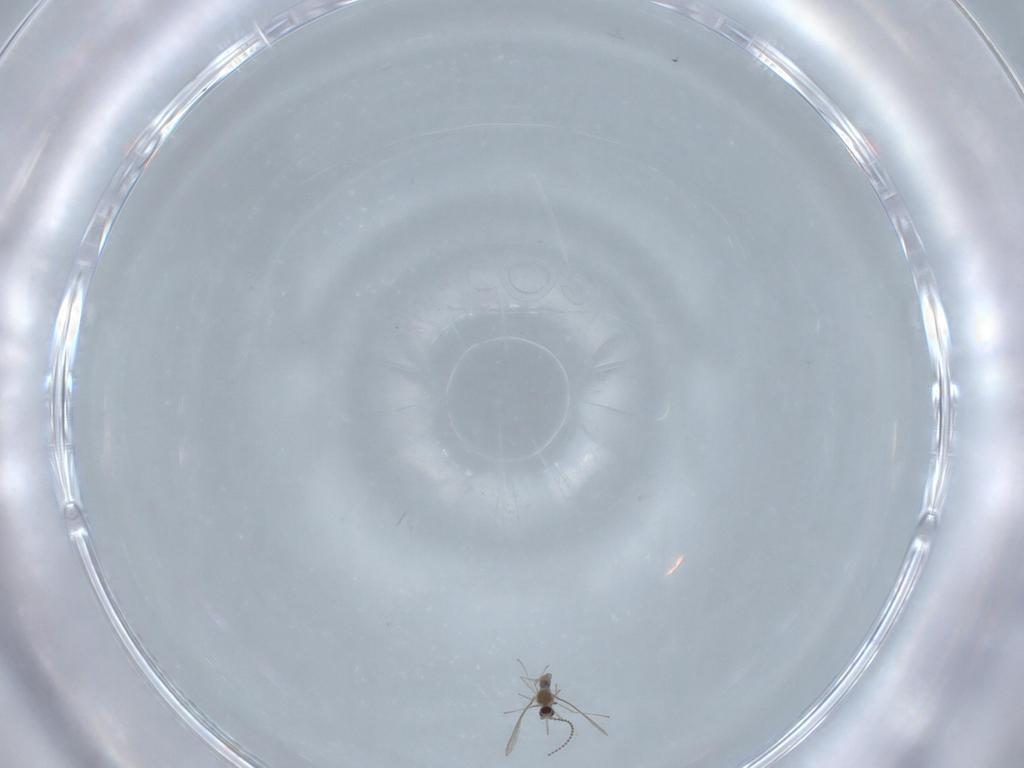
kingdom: Animalia
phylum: Arthropoda
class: Insecta
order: Diptera
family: Cecidomyiidae
